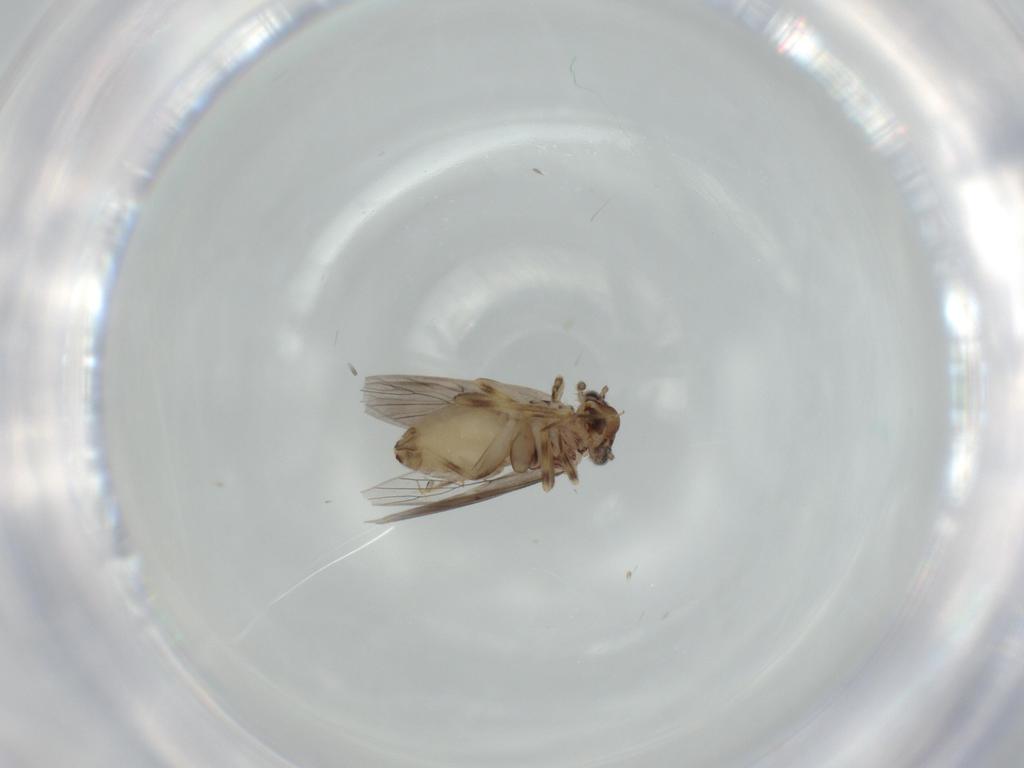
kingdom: Animalia
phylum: Arthropoda
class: Insecta
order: Psocodea
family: Lepidopsocidae
